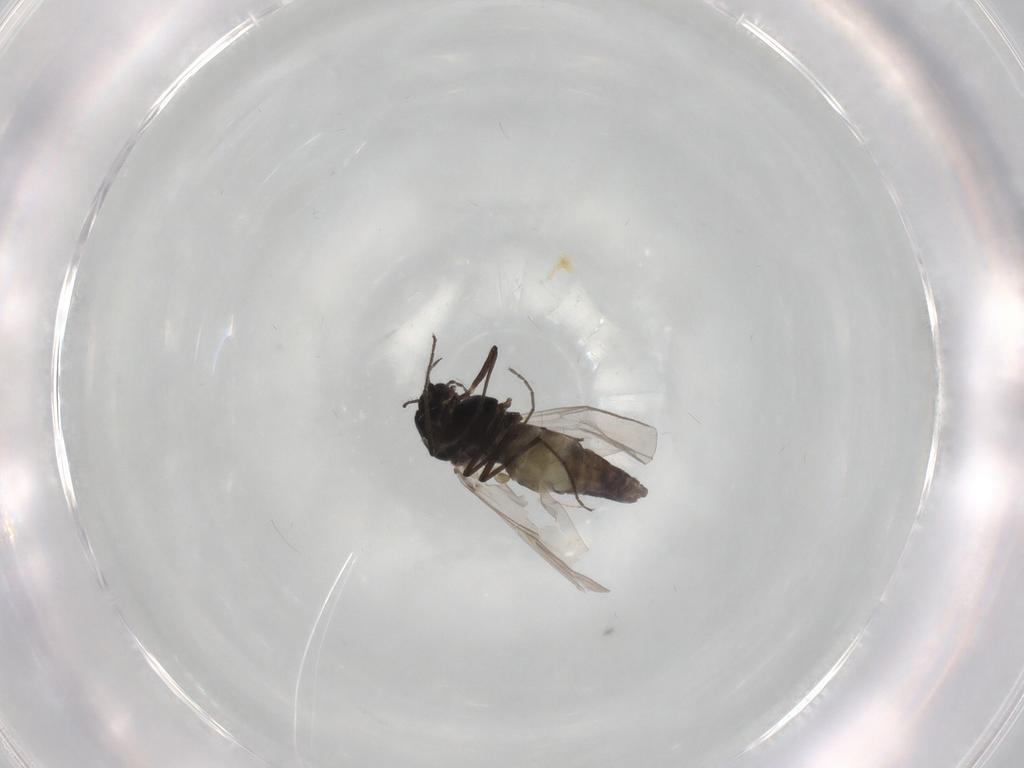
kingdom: Animalia
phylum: Arthropoda
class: Insecta
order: Diptera
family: Chironomidae
